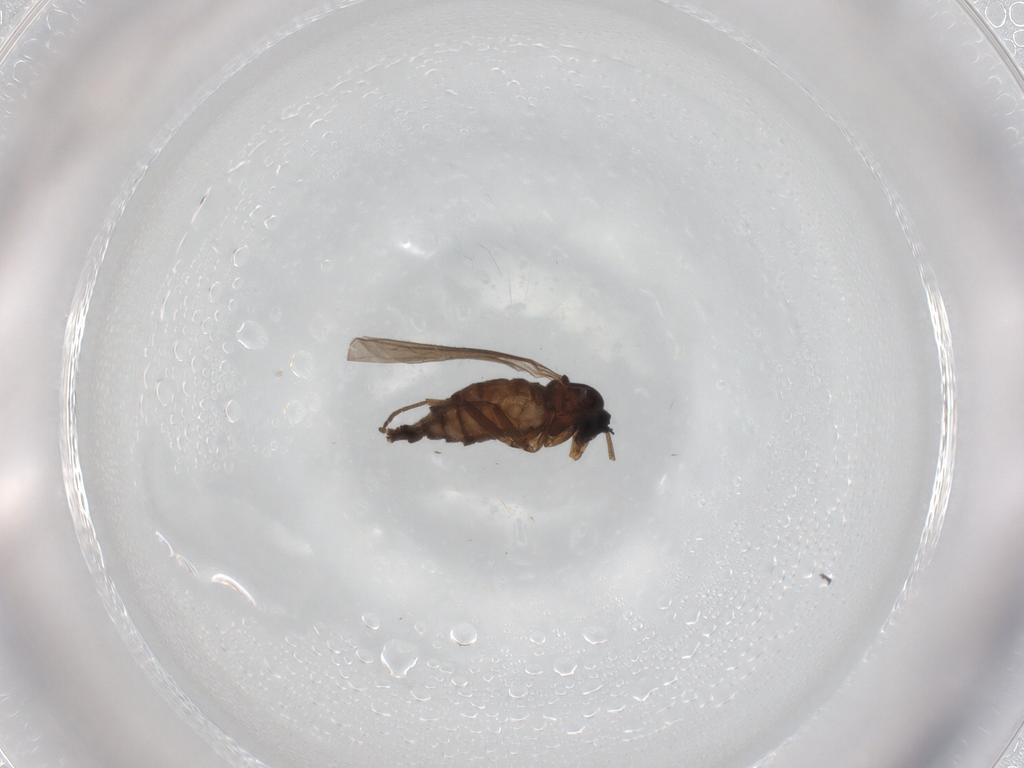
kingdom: Animalia
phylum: Arthropoda
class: Insecta
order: Diptera
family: Sciaridae
